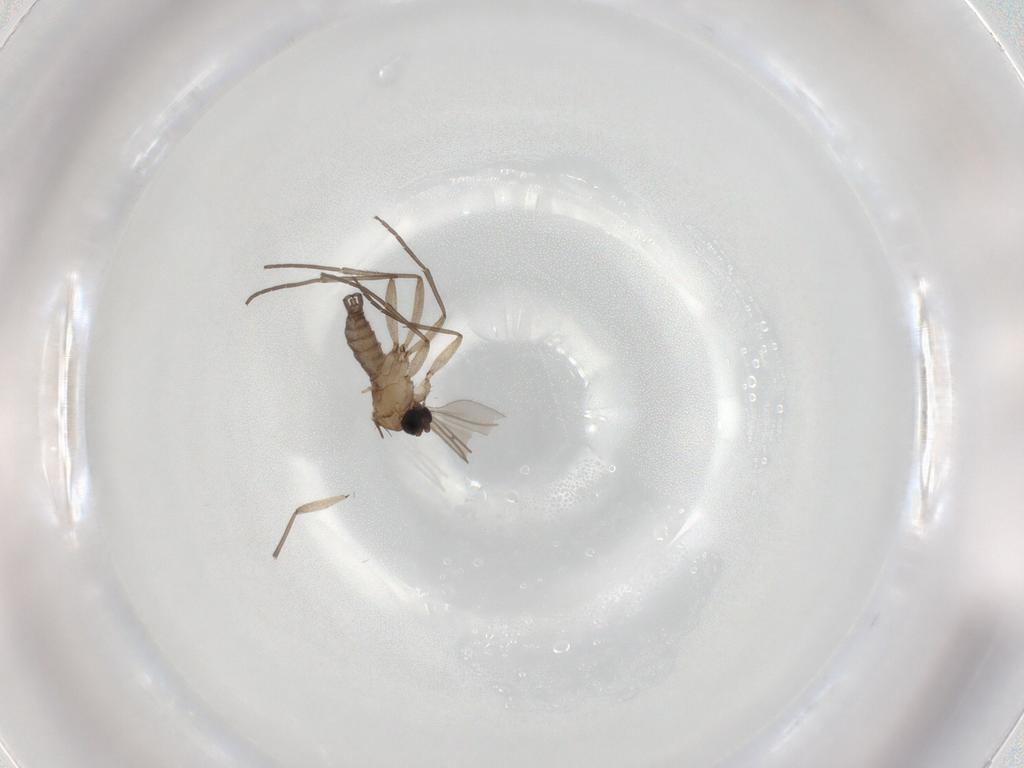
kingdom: Animalia
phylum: Arthropoda
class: Insecta
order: Diptera
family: Sciaridae
